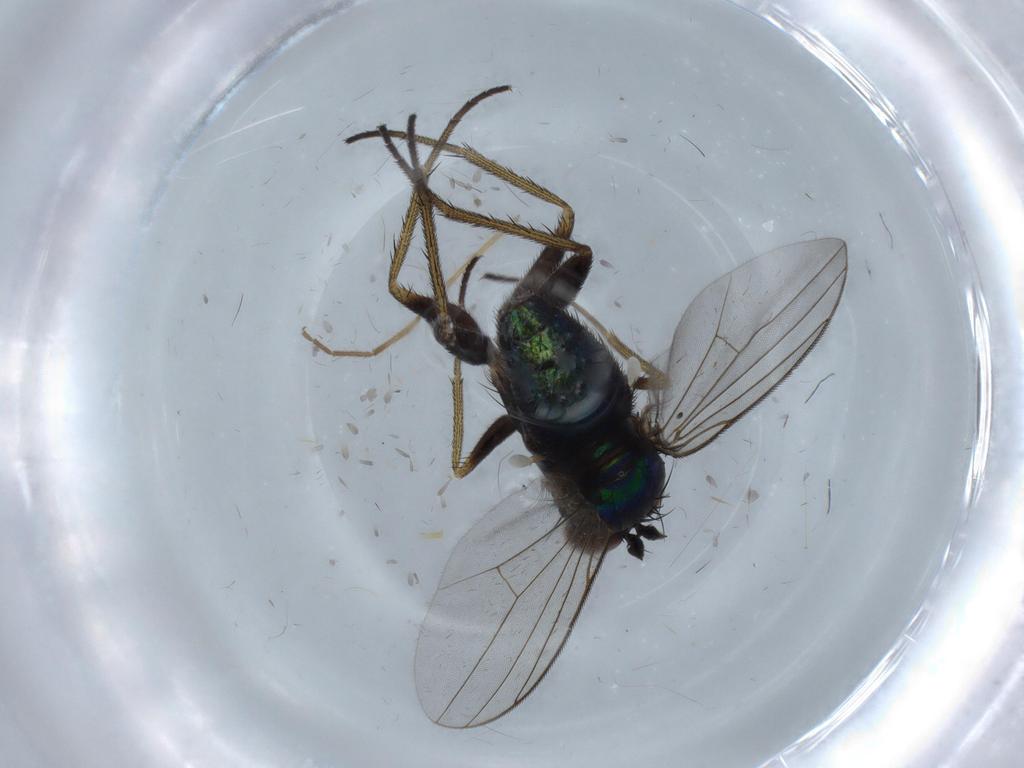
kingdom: Animalia
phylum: Arthropoda
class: Insecta
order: Diptera
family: Dolichopodidae
